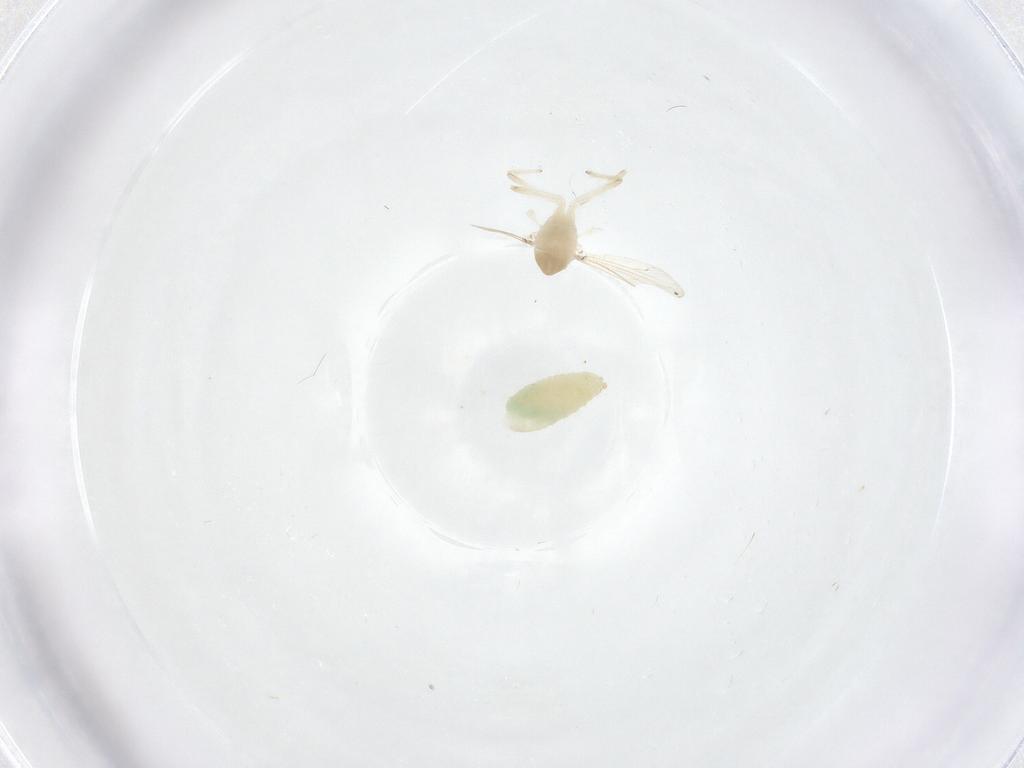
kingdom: Animalia
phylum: Arthropoda
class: Insecta
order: Diptera
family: Chironomidae
